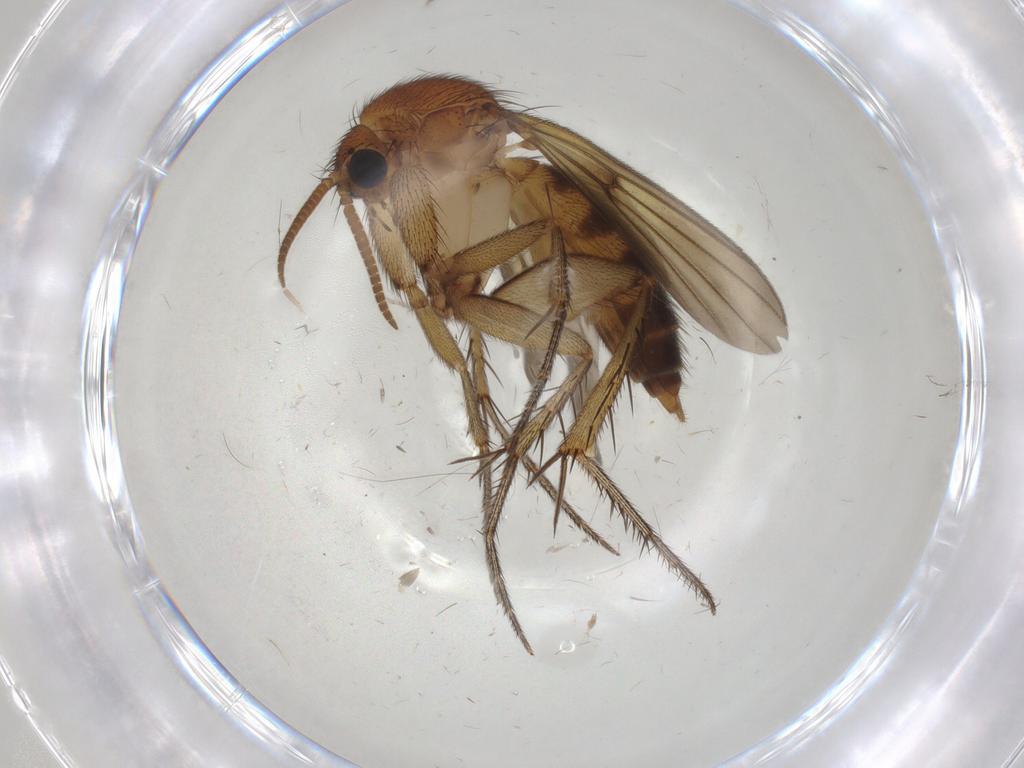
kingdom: Animalia
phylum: Arthropoda
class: Insecta
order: Diptera
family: Mycetophilidae
